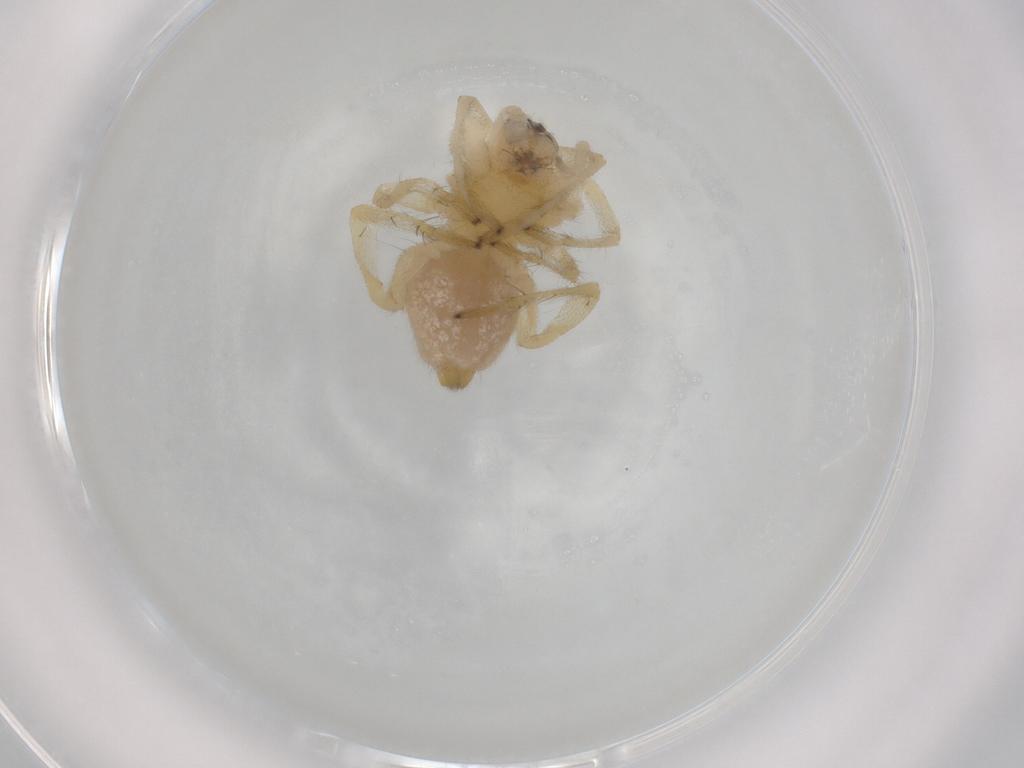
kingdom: Animalia
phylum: Arthropoda
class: Arachnida
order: Araneae
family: Cheiracanthiidae
